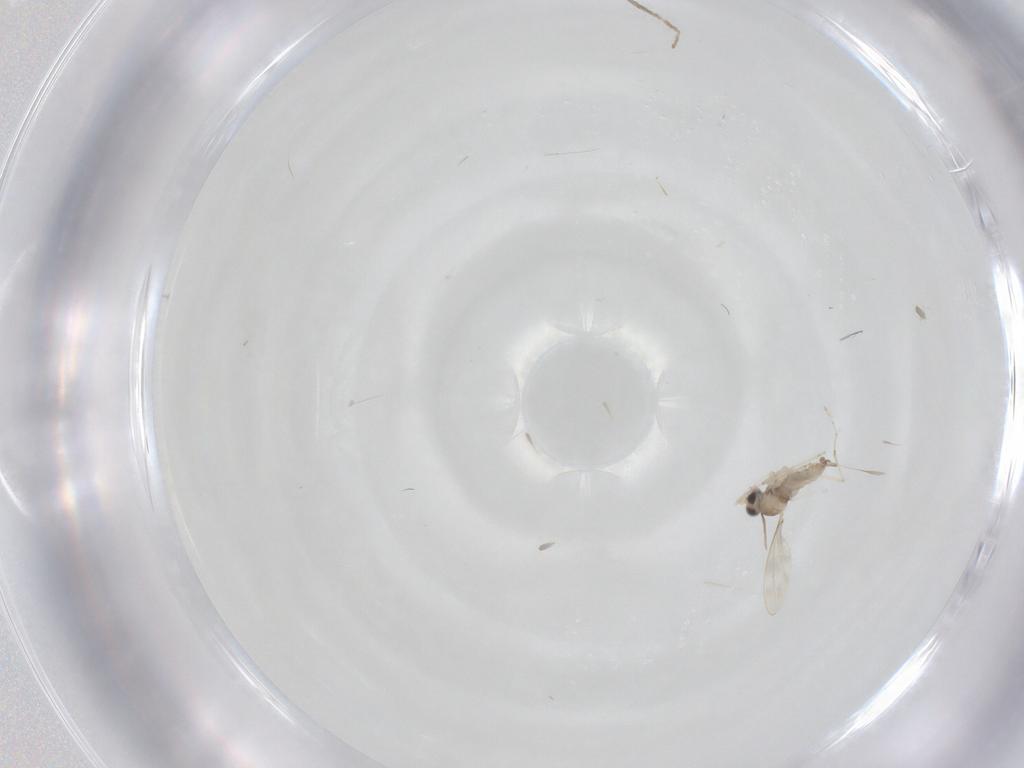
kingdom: Animalia
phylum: Arthropoda
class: Insecta
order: Diptera
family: Cecidomyiidae
